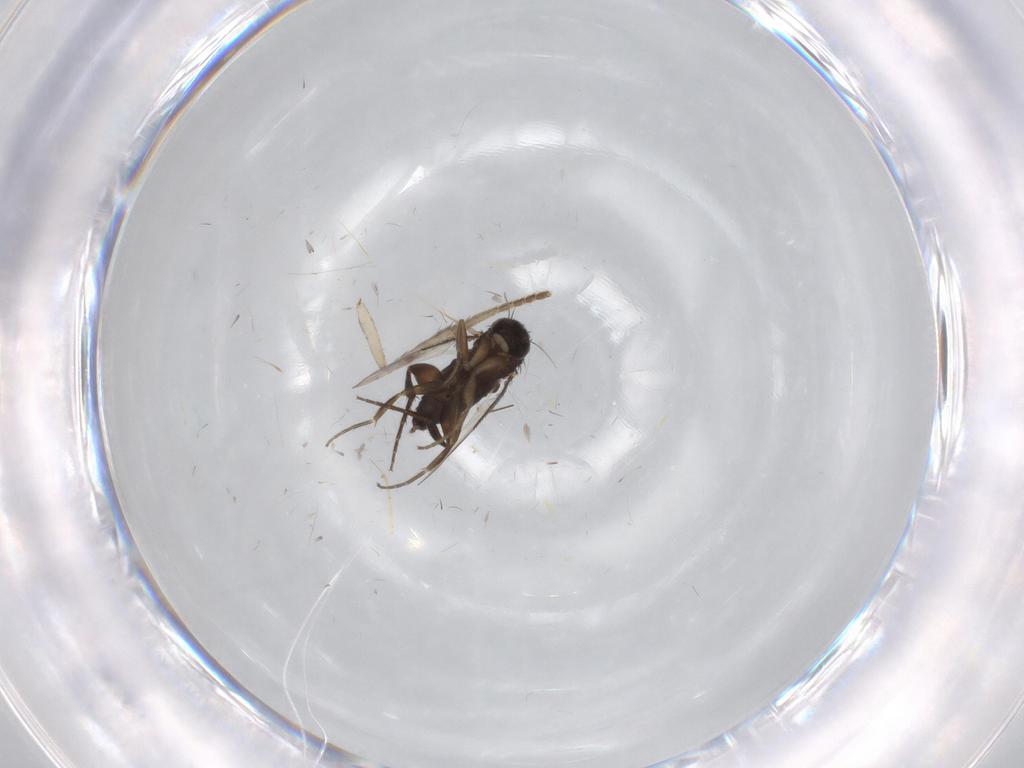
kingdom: Animalia
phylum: Arthropoda
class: Insecta
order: Diptera
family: Phoridae
